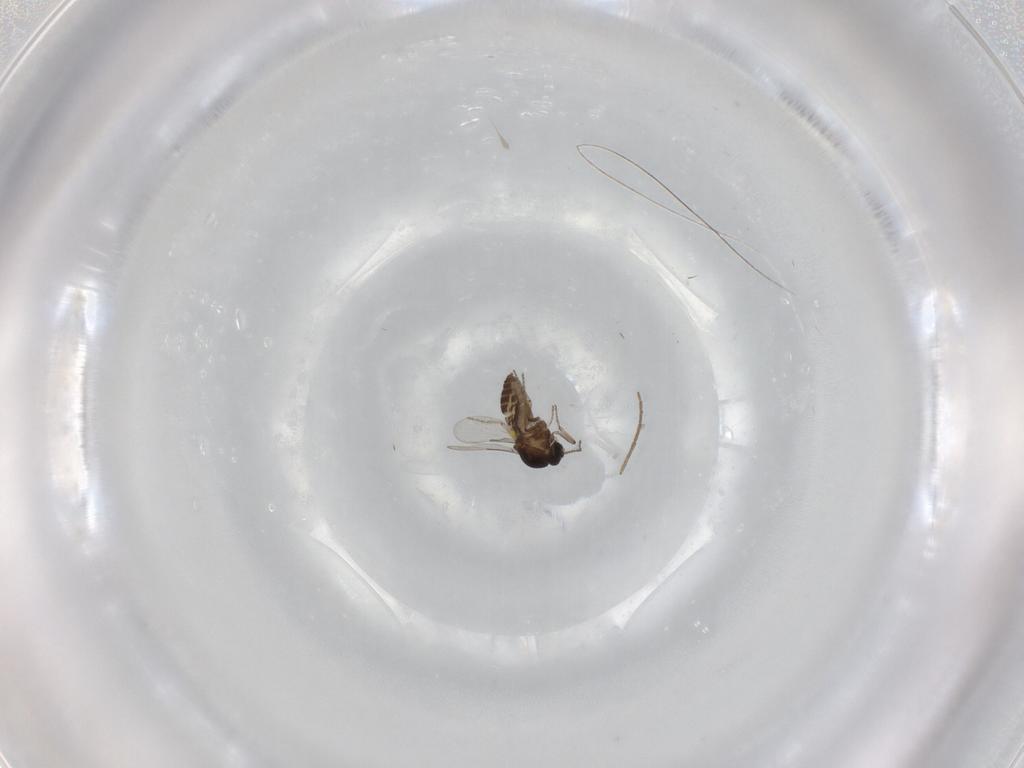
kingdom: Animalia
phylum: Arthropoda
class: Insecta
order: Diptera
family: Ceratopogonidae
